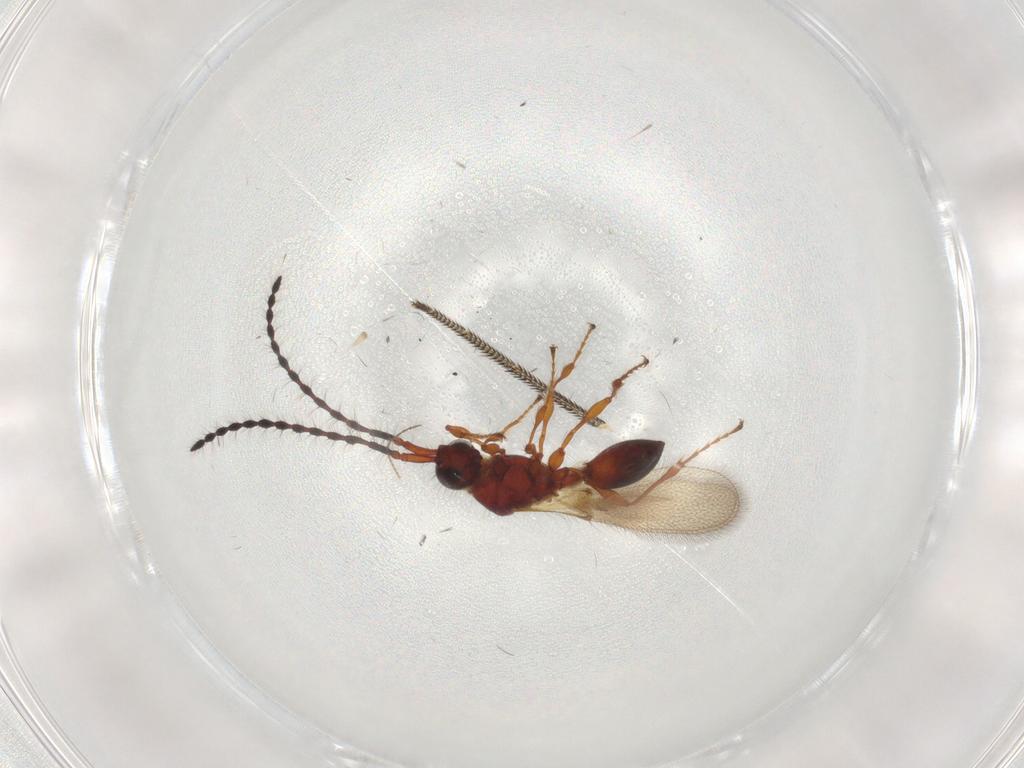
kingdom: Animalia
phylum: Arthropoda
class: Insecta
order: Hymenoptera
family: Diapriidae
